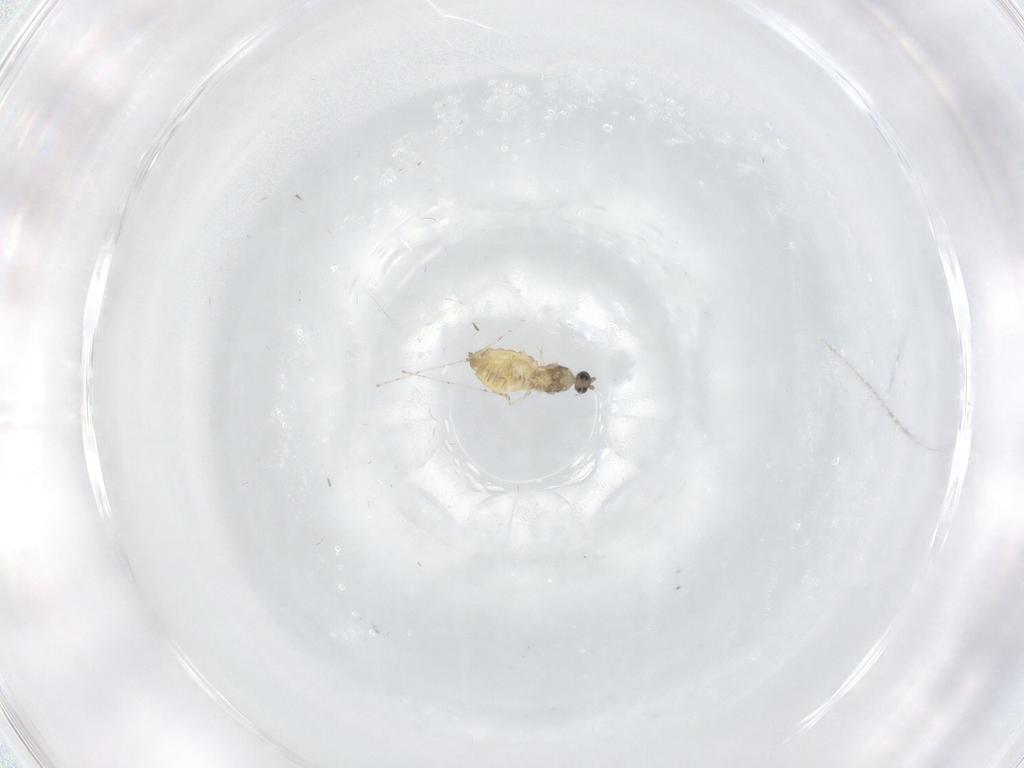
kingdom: Animalia
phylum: Arthropoda
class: Insecta
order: Diptera
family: Cecidomyiidae
